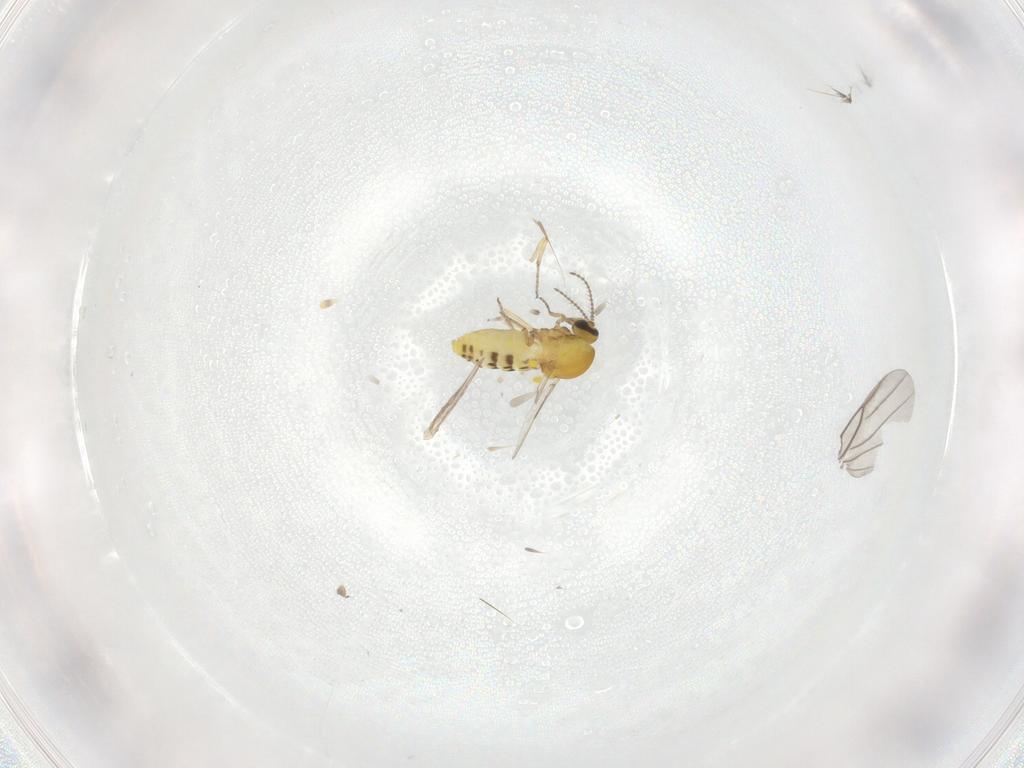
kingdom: Animalia
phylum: Arthropoda
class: Insecta
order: Diptera
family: Ceratopogonidae
